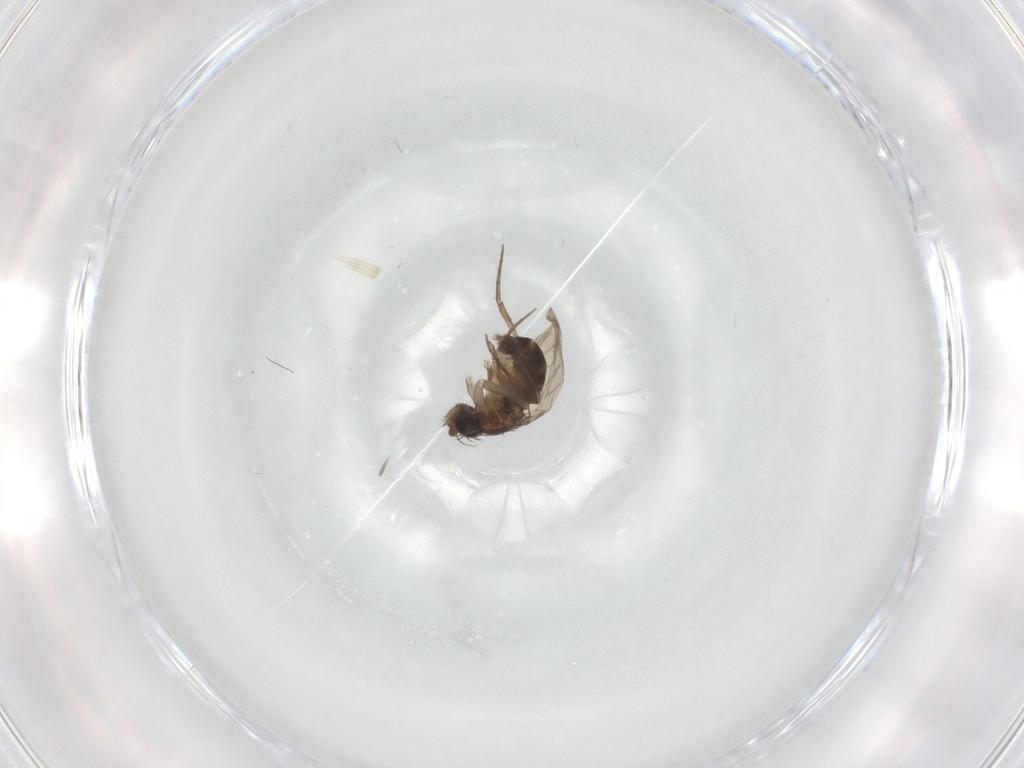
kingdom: Animalia
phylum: Arthropoda
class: Insecta
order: Diptera
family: Phoridae
